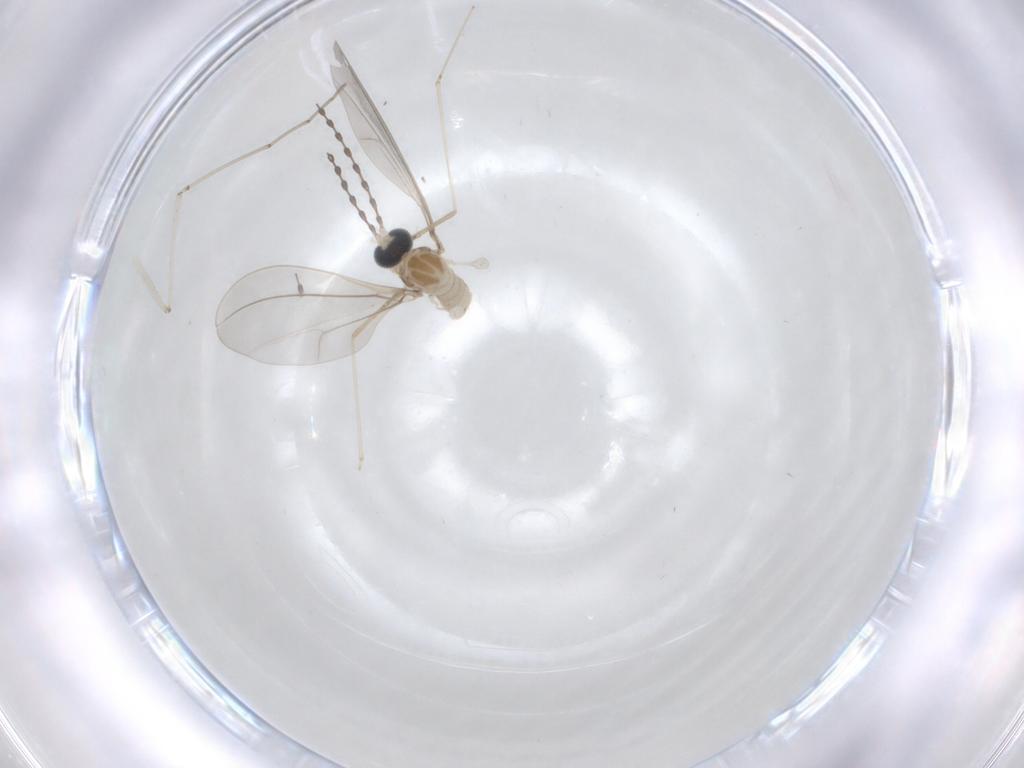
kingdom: Animalia
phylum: Arthropoda
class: Insecta
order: Diptera
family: Cecidomyiidae
